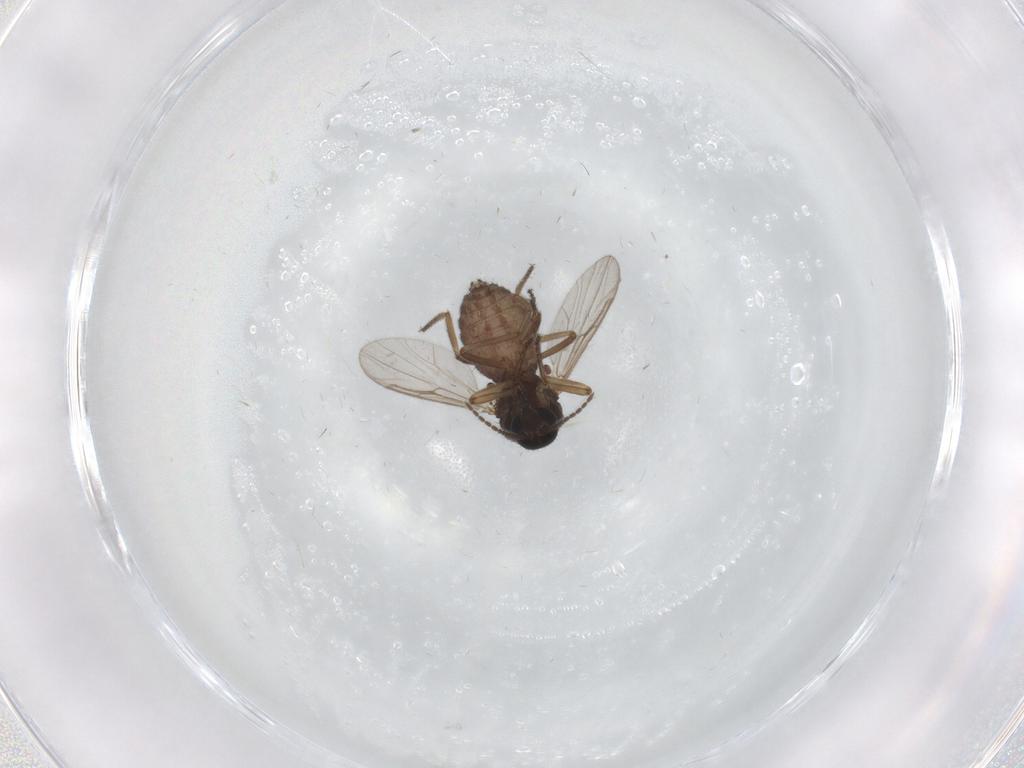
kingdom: Animalia
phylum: Arthropoda
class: Insecta
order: Diptera
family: Ceratopogonidae
